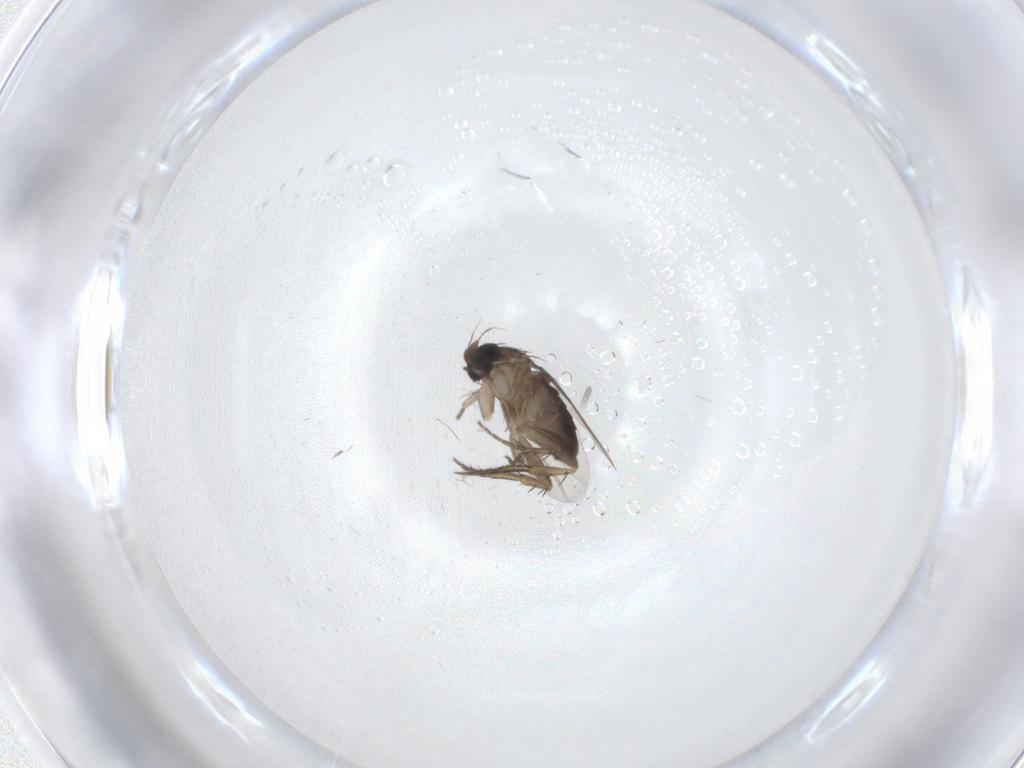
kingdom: Animalia
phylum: Arthropoda
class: Insecta
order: Diptera
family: Phoridae
